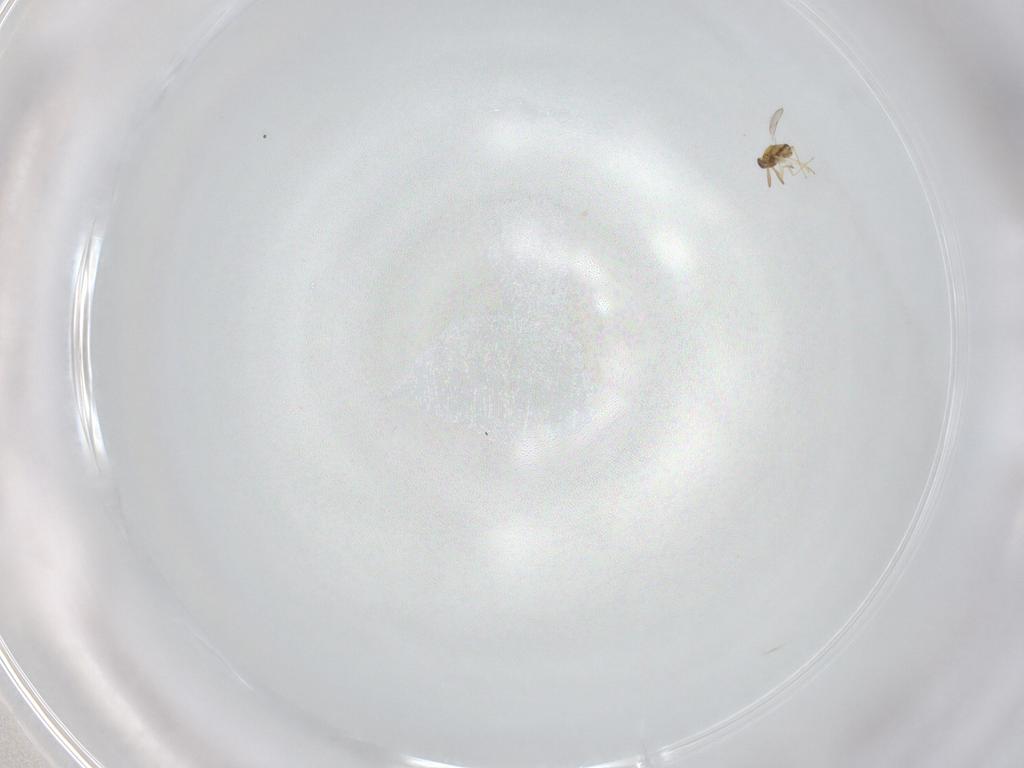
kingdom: Animalia
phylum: Arthropoda
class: Insecta
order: Hymenoptera
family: Aphelinidae
